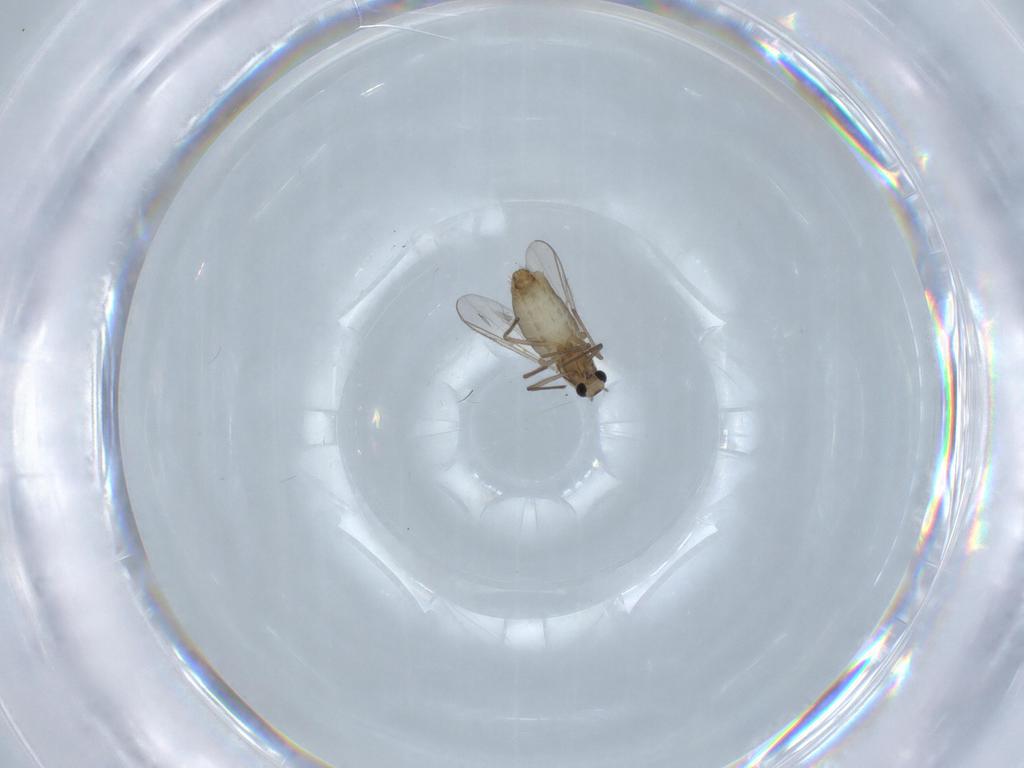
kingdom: Animalia
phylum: Arthropoda
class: Insecta
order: Diptera
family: Chironomidae
